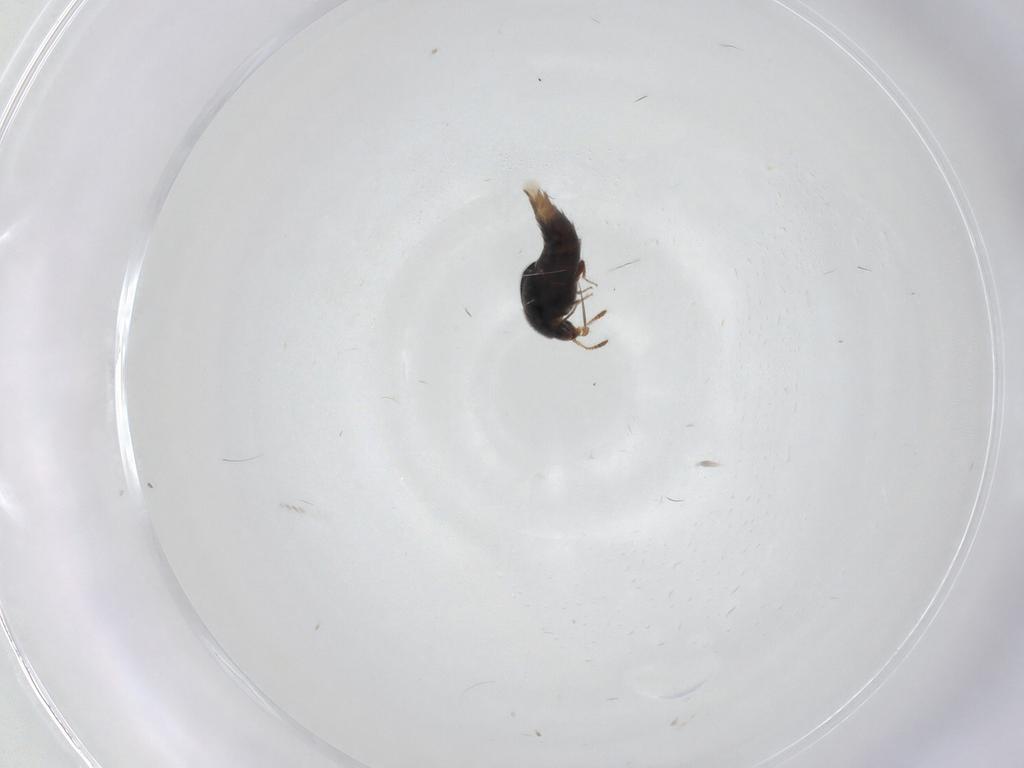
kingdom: Animalia
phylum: Arthropoda
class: Insecta
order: Coleoptera
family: Staphylinidae
